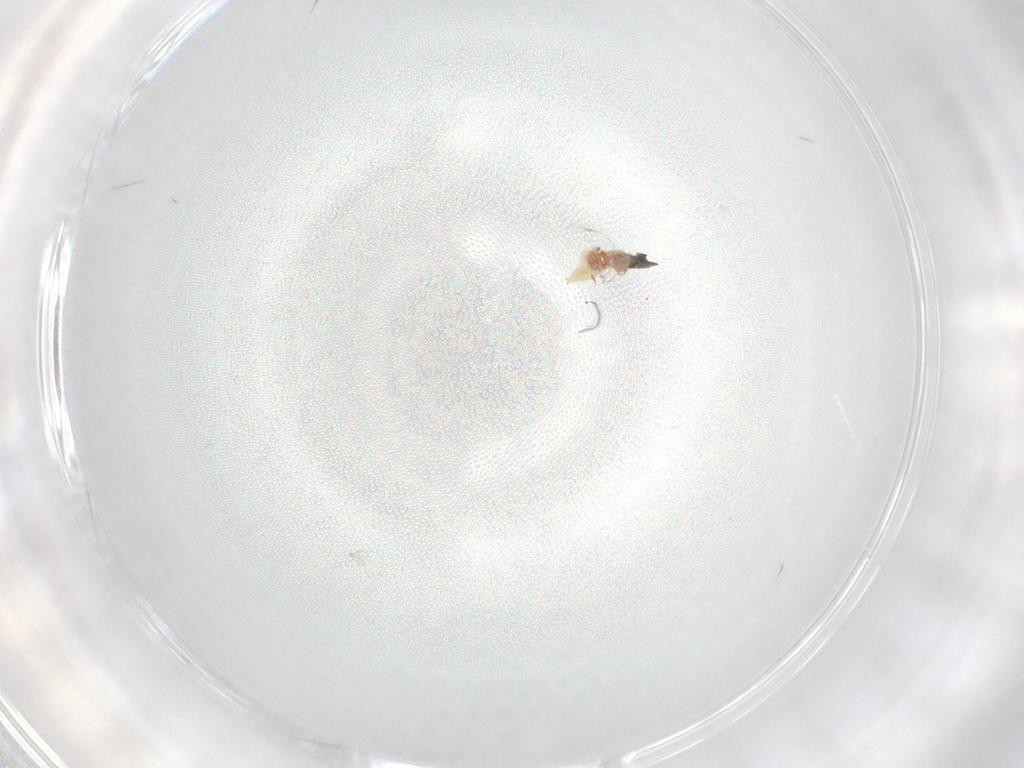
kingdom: Animalia
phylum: Arthropoda
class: Insecta
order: Diptera
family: Cecidomyiidae
